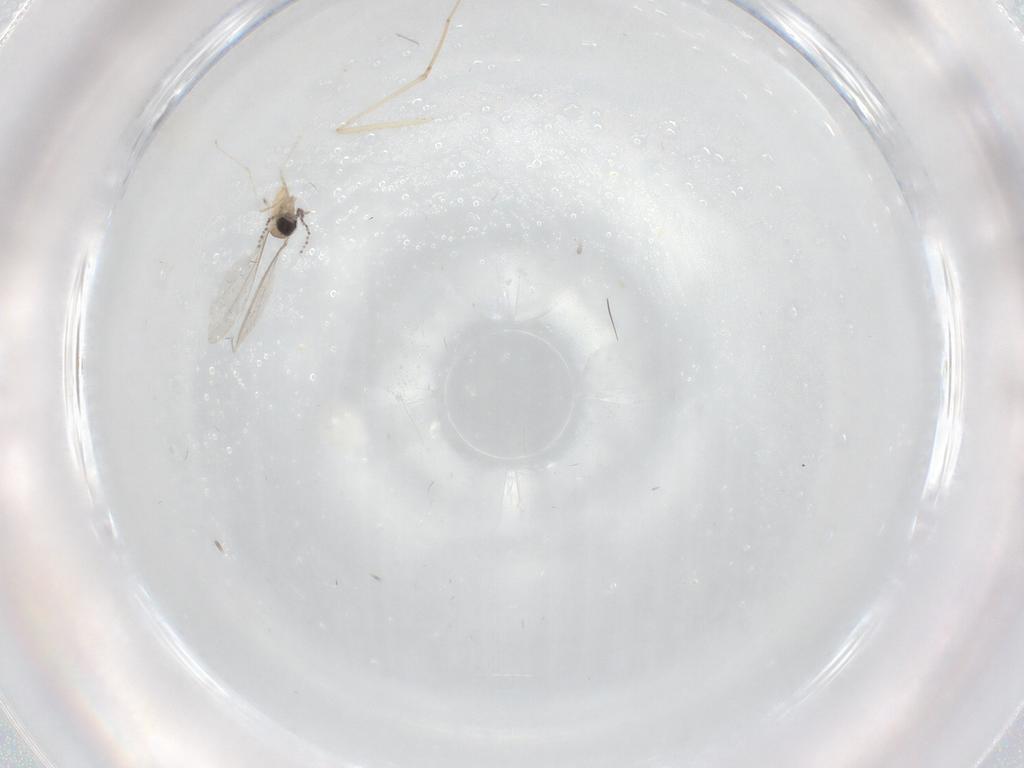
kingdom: Animalia
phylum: Arthropoda
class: Insecta
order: Diptera
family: Cecidomyiidae
